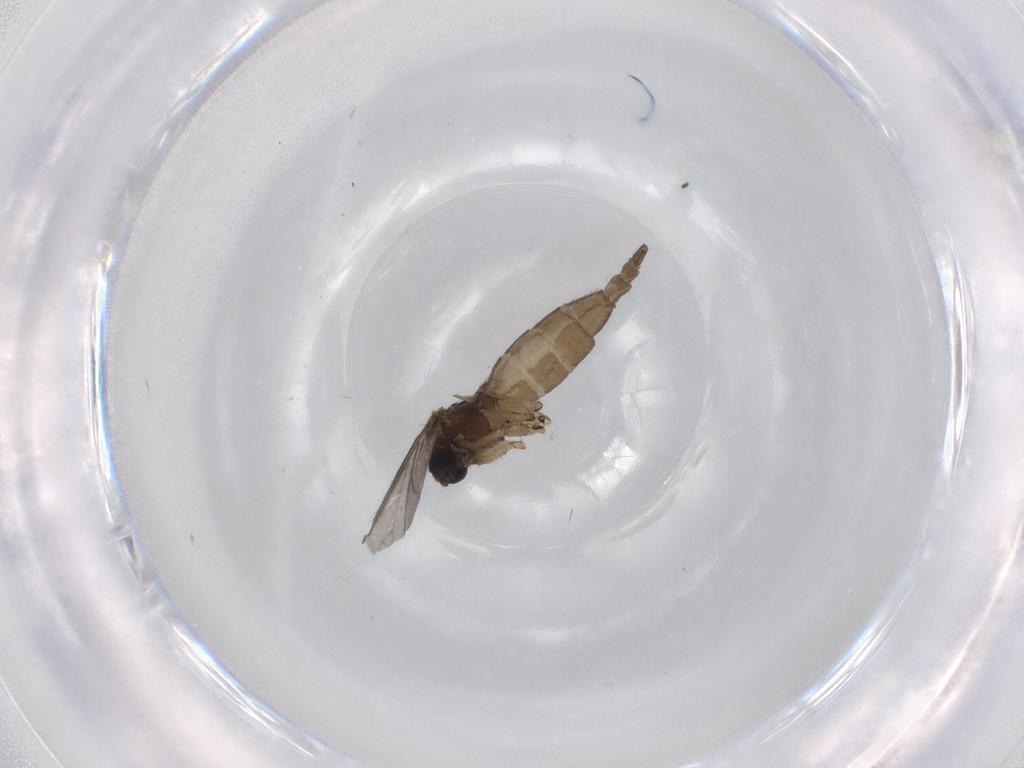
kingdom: Animalia
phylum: Arthropoda
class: Insecta
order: Diptera
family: Sciaridae
